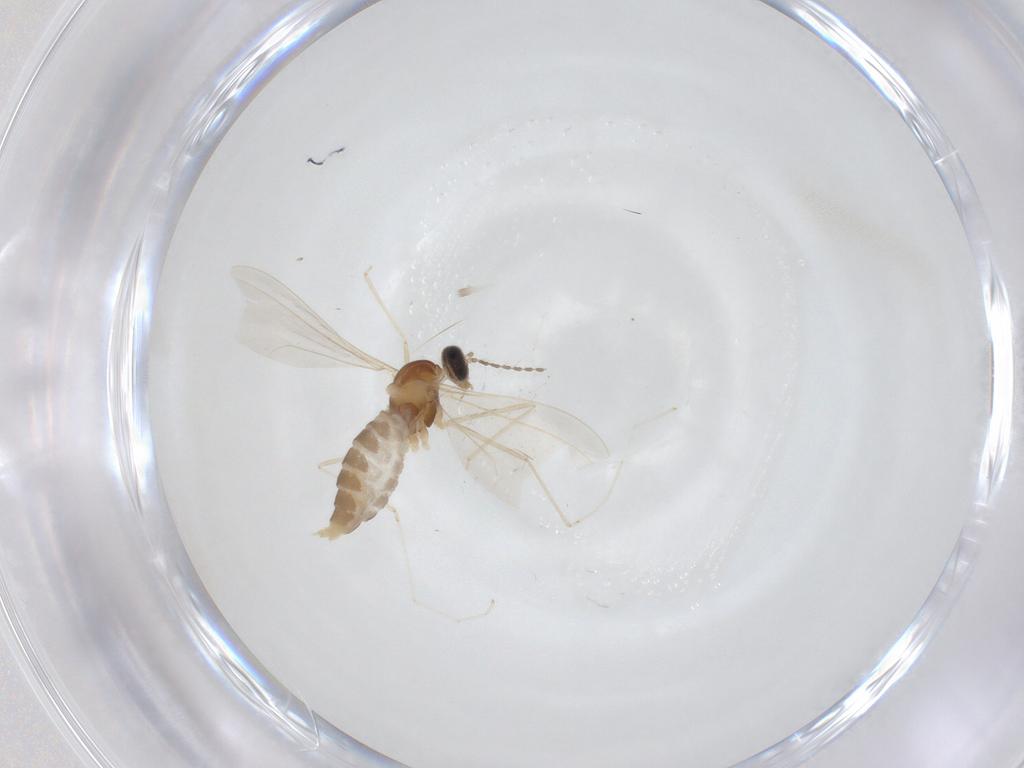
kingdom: Animalia
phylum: Arthropoda
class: Insecta
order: Diptera
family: Cecidomyiidae
